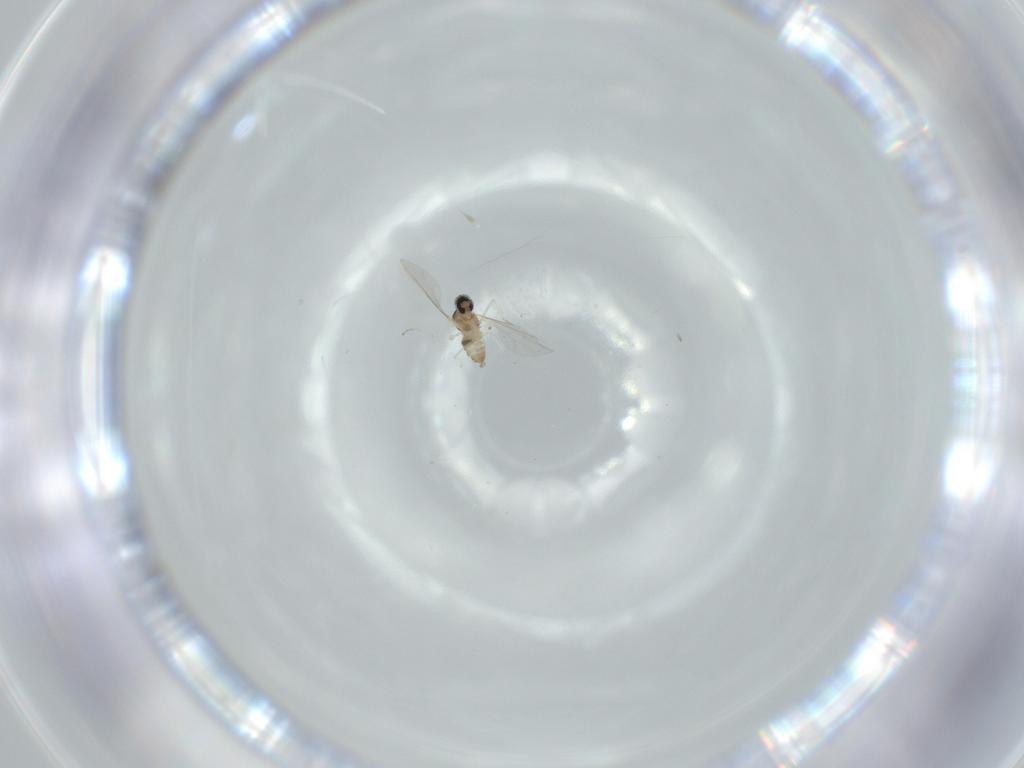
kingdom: Animalia
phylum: Arthropoda
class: Insecta
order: Diptera
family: Cecidomyiidae
